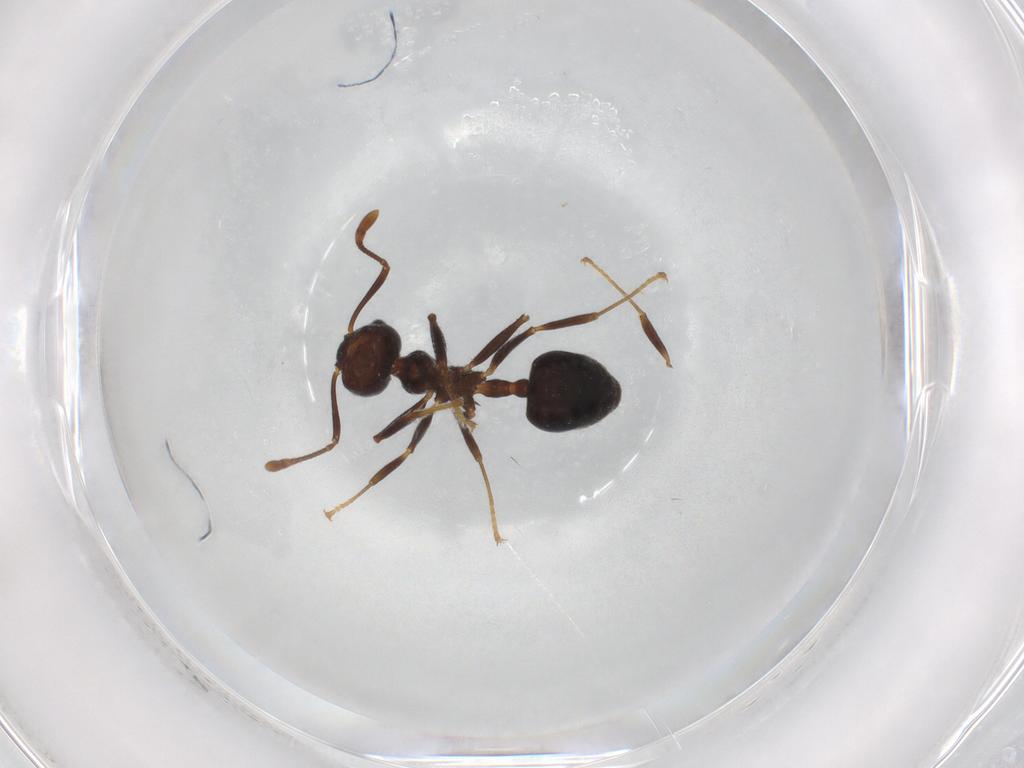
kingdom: Animalia
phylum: Arthropoda
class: Insecta
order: Hymenoptera
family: Formicidae
